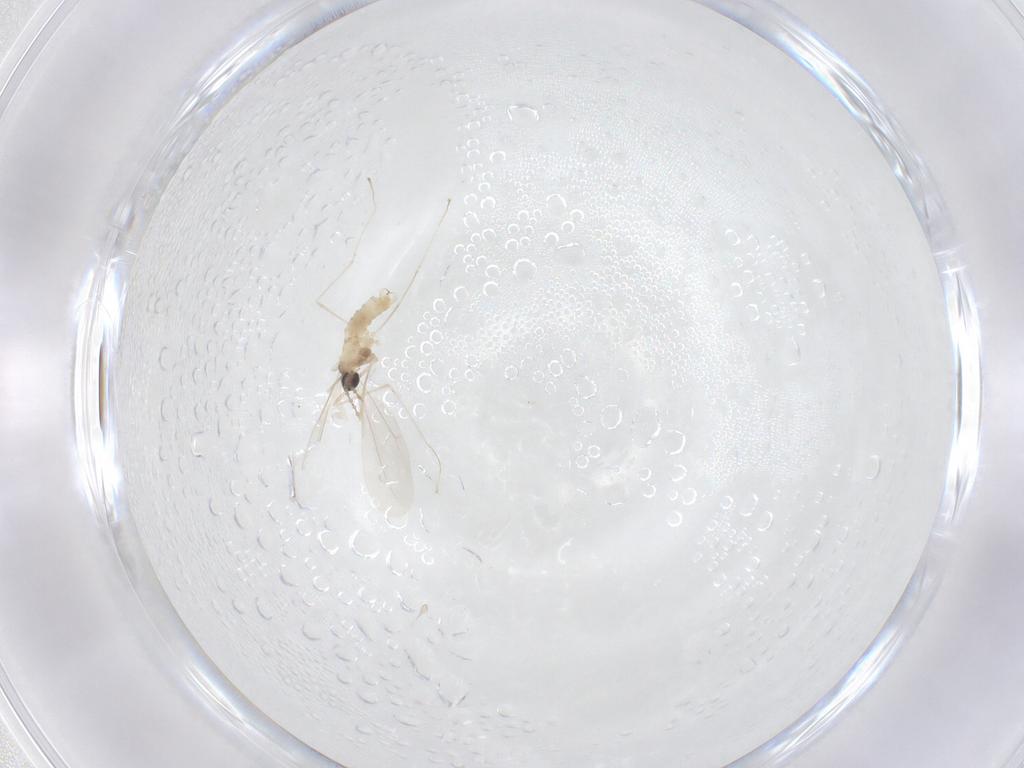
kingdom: Animalia
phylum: Arthropoda
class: Insecta
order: Diptera
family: Cecidomyiidae
